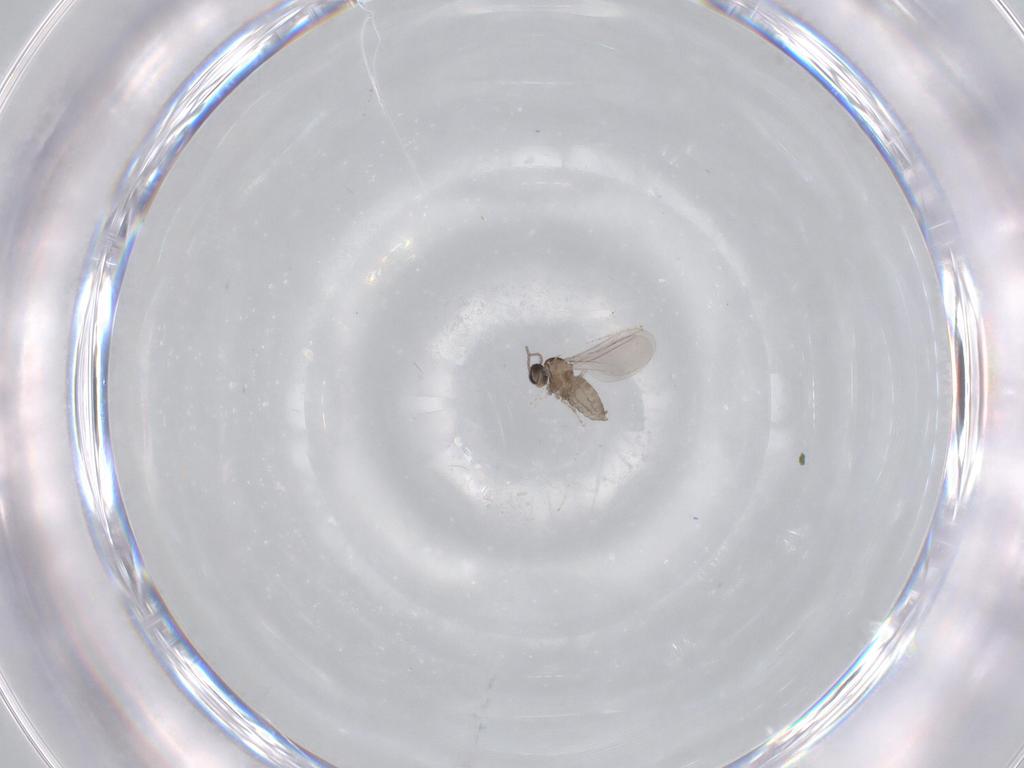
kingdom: Animalia
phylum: Arthropoda
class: Insecta
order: Diptera
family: Cecidomyiidae
